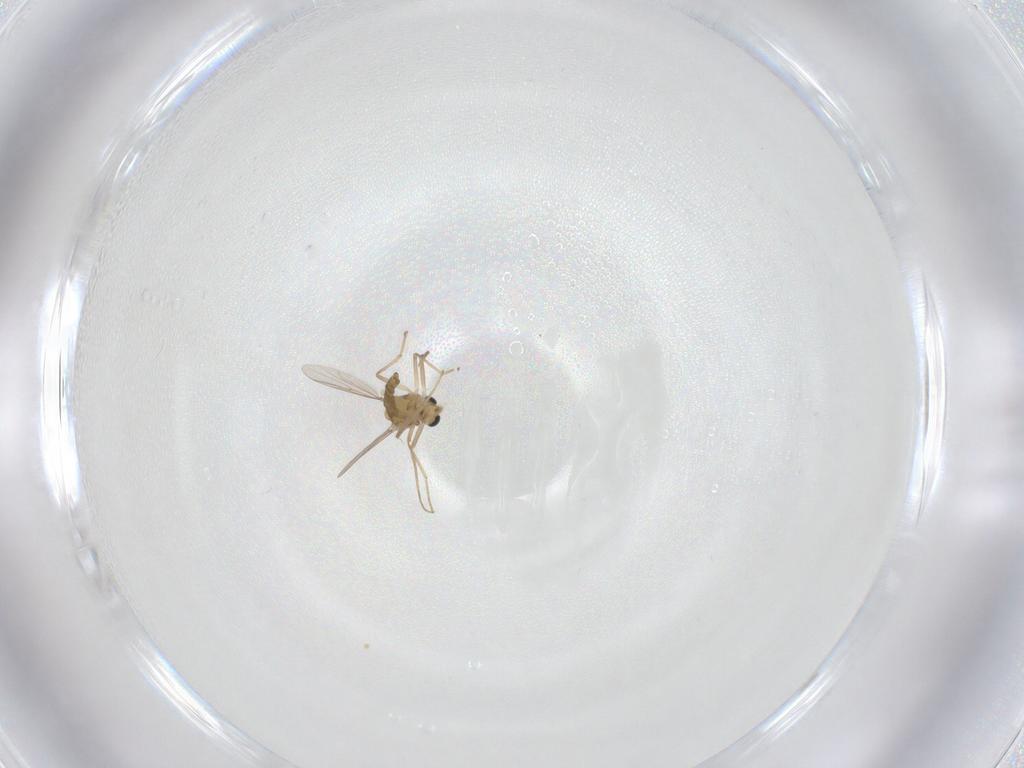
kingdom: Animalia
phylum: Arthropoda
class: Insecta
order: Diptera
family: Chironomidae
